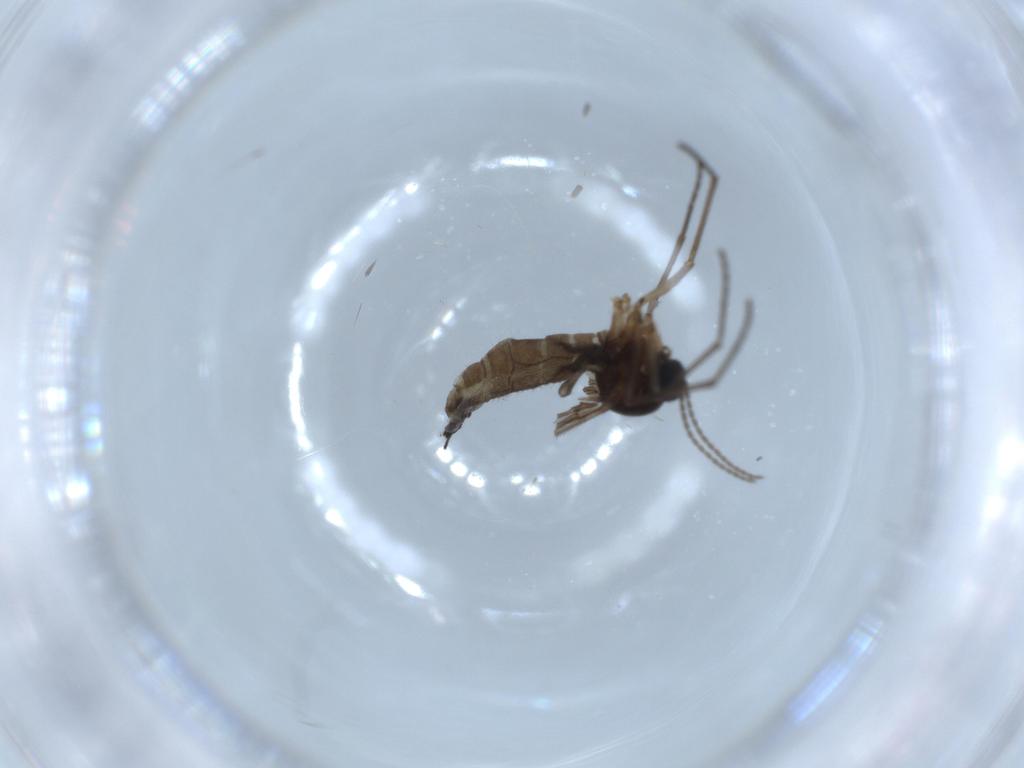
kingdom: Animalia
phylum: Arthropoda
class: Insecta
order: Diptera
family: Sciaridae
